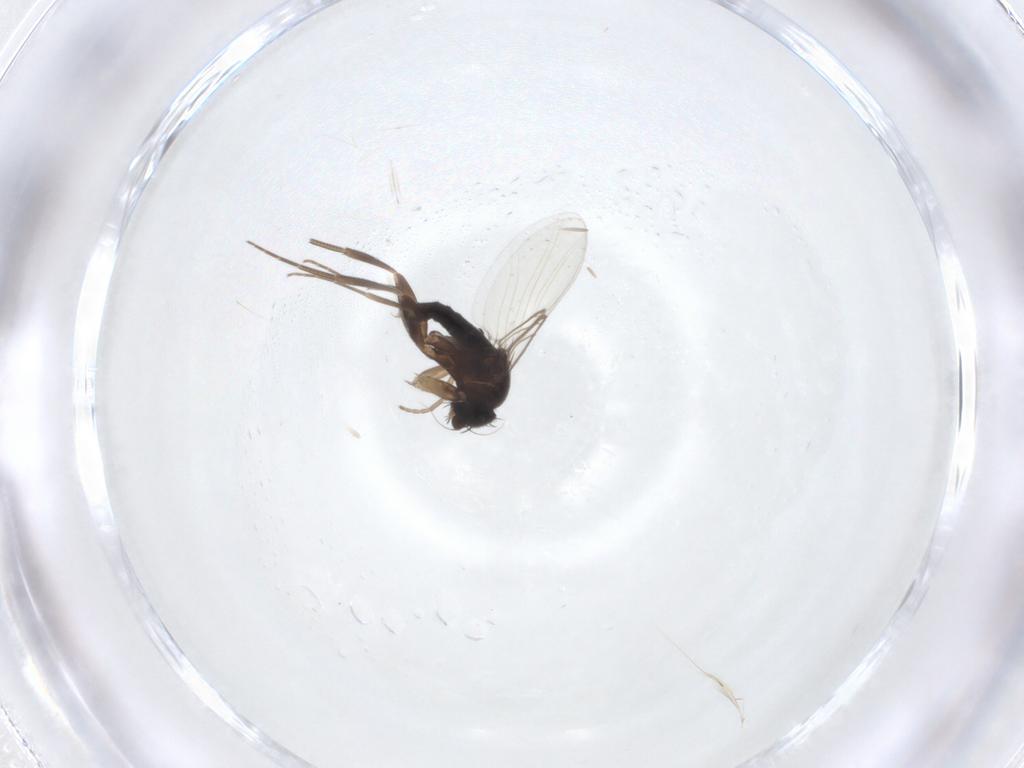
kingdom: Animalia
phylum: Arthropoda
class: Insecta
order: Diptera
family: Phoridae
